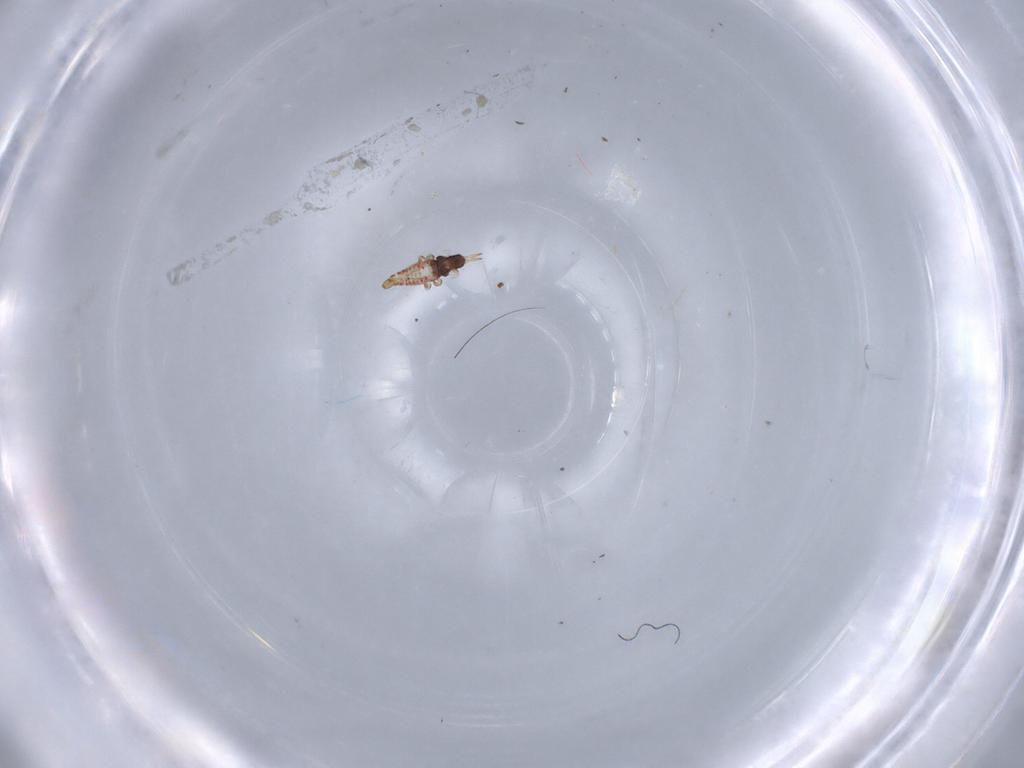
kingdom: Animalia
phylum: Arthropoda
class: Insecta
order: Thysanoptera
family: Phlaeothripidae
